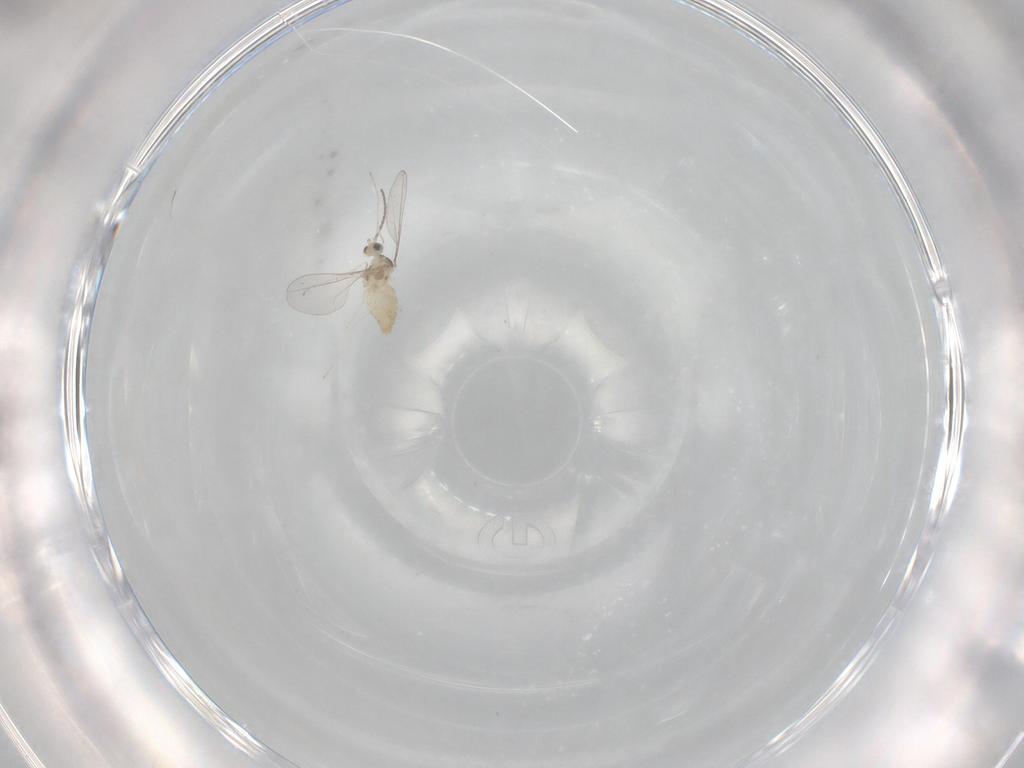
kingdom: Animalia
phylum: Arthropoda
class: Insecta
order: Diptera
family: Cecidomyiidae
